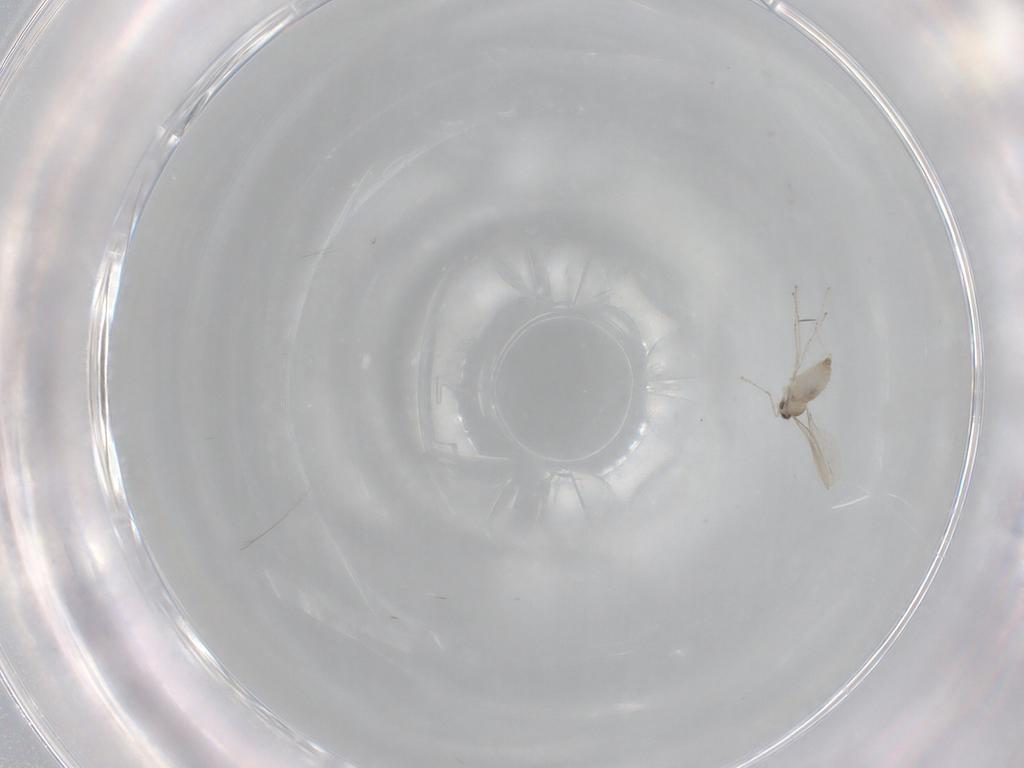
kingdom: Animalia
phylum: Arthropoda
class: Insecta
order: Diptera
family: Cecidomyiidae
